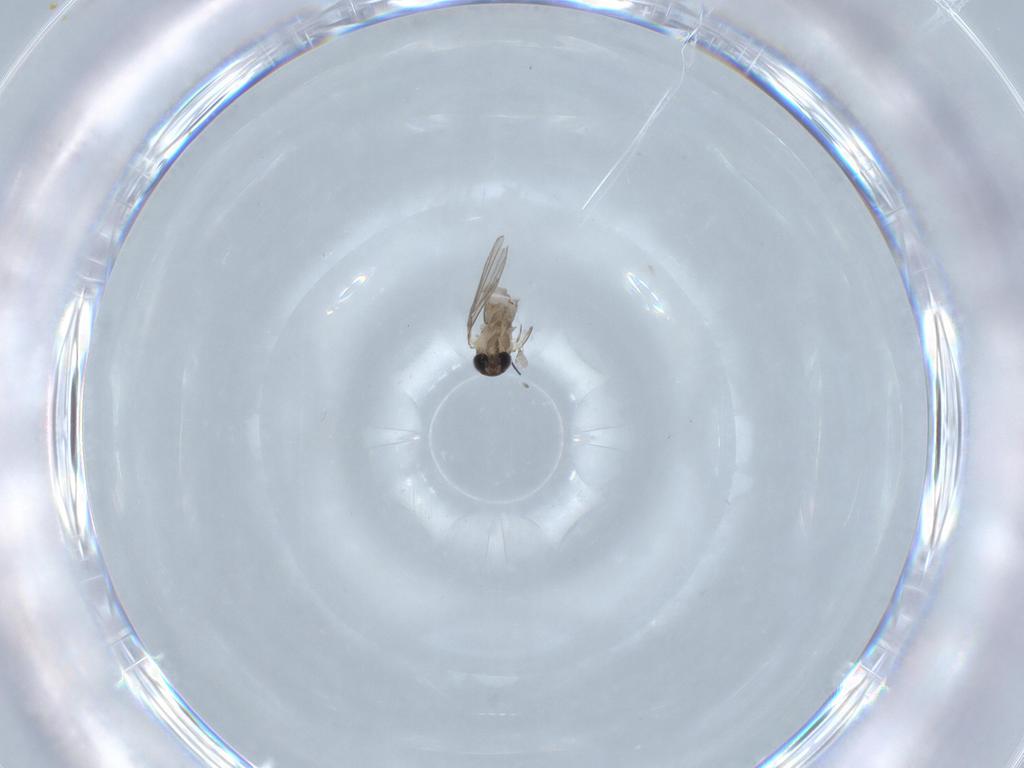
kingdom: Animalia
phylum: Arthropoda
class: Insecta
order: Diptera
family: Psychodidae
